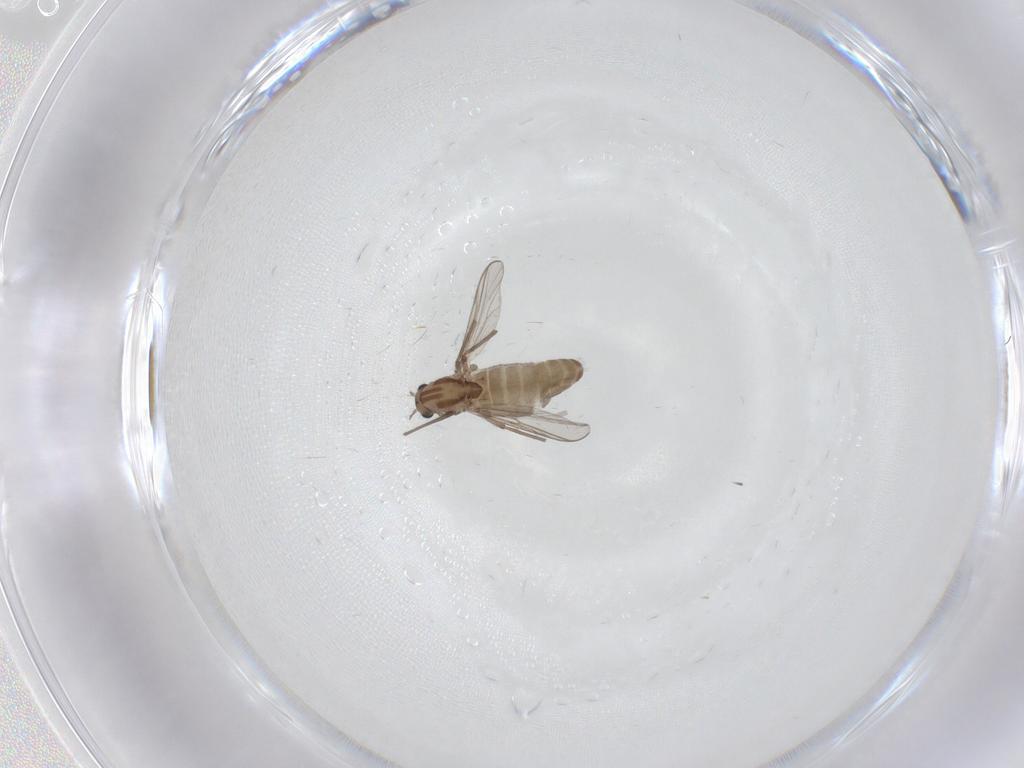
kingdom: Animalia
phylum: Arthropoda
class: Insecta
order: Diptera
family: Chironomidae
